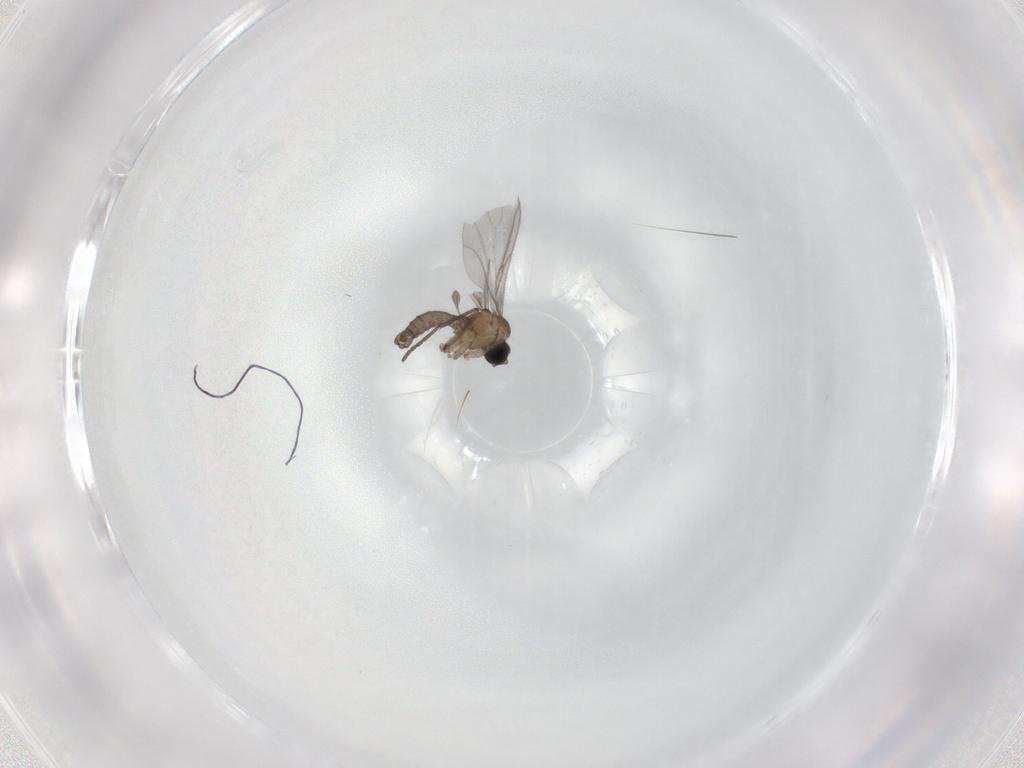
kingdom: Animalia
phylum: Arthropoda
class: Insecta
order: Diptera
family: Sciaridae
